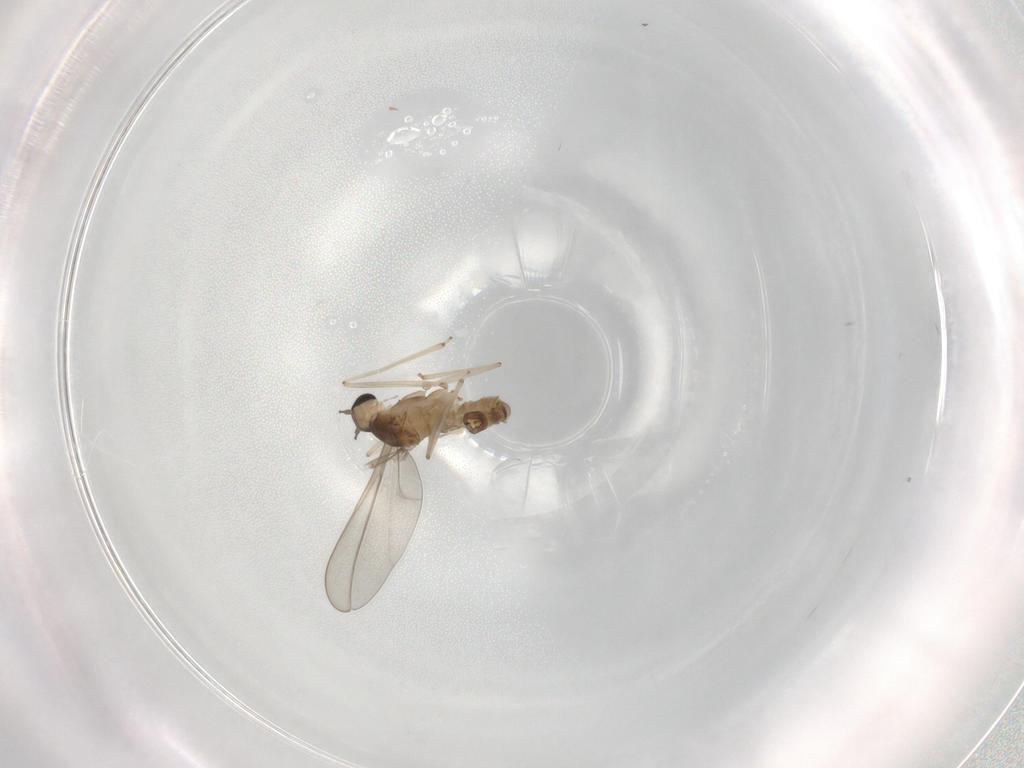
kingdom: Animalia
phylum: Arthropoda
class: Insecta
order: Diptera
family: Cecidomyiidae
